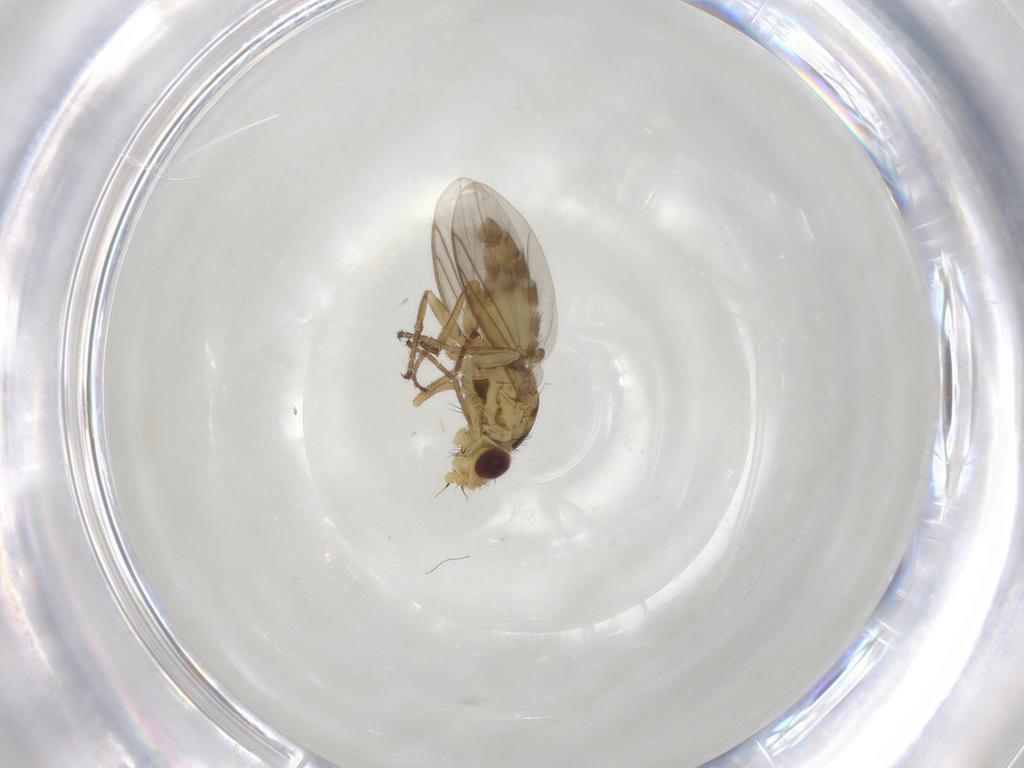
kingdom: Animalia
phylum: Arthropoda
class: Insecta
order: Diptera
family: Agromyzidae
